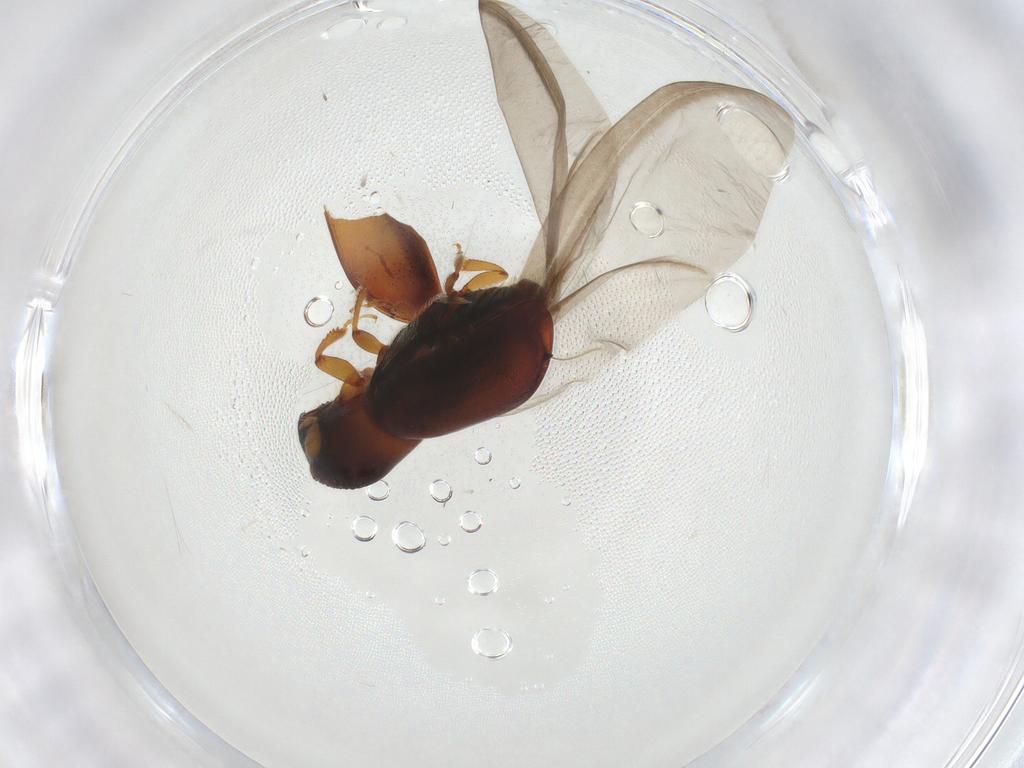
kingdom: Animalia
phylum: Arthropoda
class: Insecta
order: Coleoptera
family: Curculionidae
